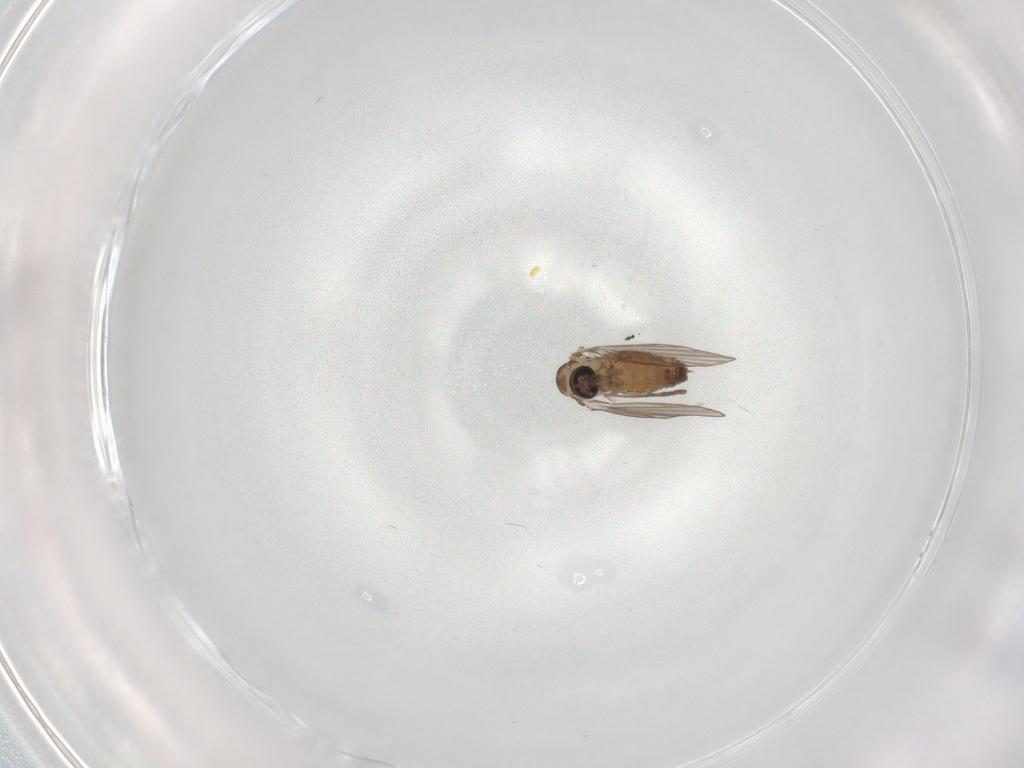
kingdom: Animalia
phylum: Arthropoda
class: Insecta
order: Diptera
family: Psychodidae
